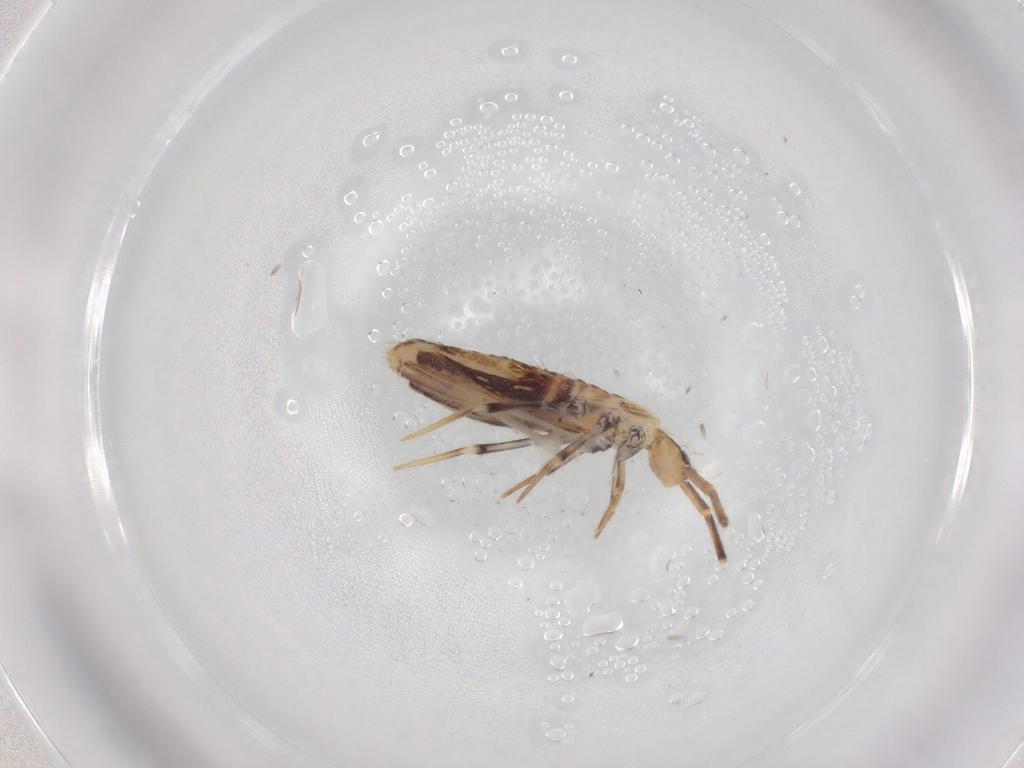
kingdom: Animalia
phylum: Arthropoda
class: Collembola
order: Poduromorpha
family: Hypogastruridae
